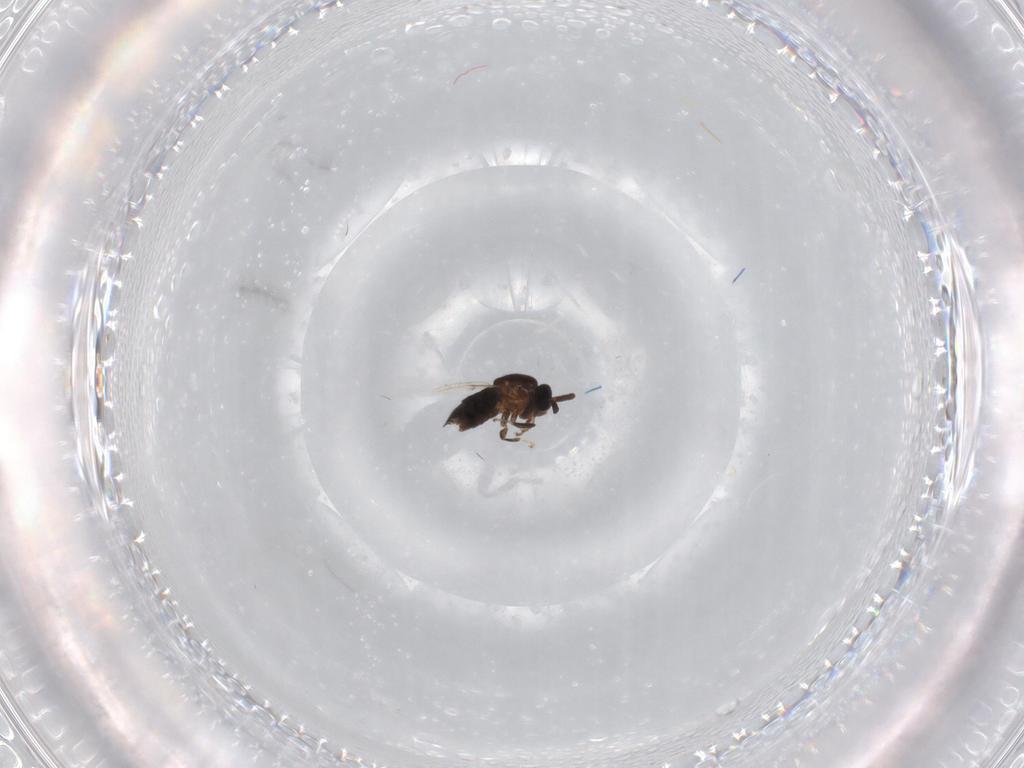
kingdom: Animalia
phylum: Arthropoda
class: Insecta
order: Diptera
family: Scatopsidae
